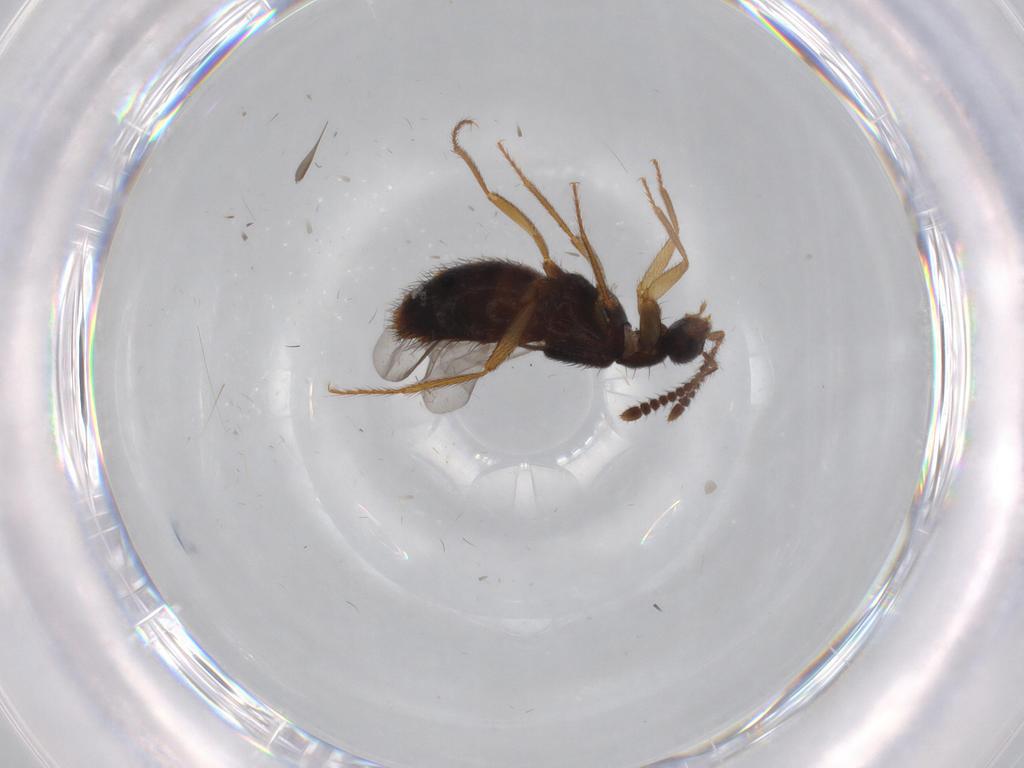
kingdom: Animalia
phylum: Arthropoda
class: Insecta
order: Coleoptera
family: Staphylinidae
